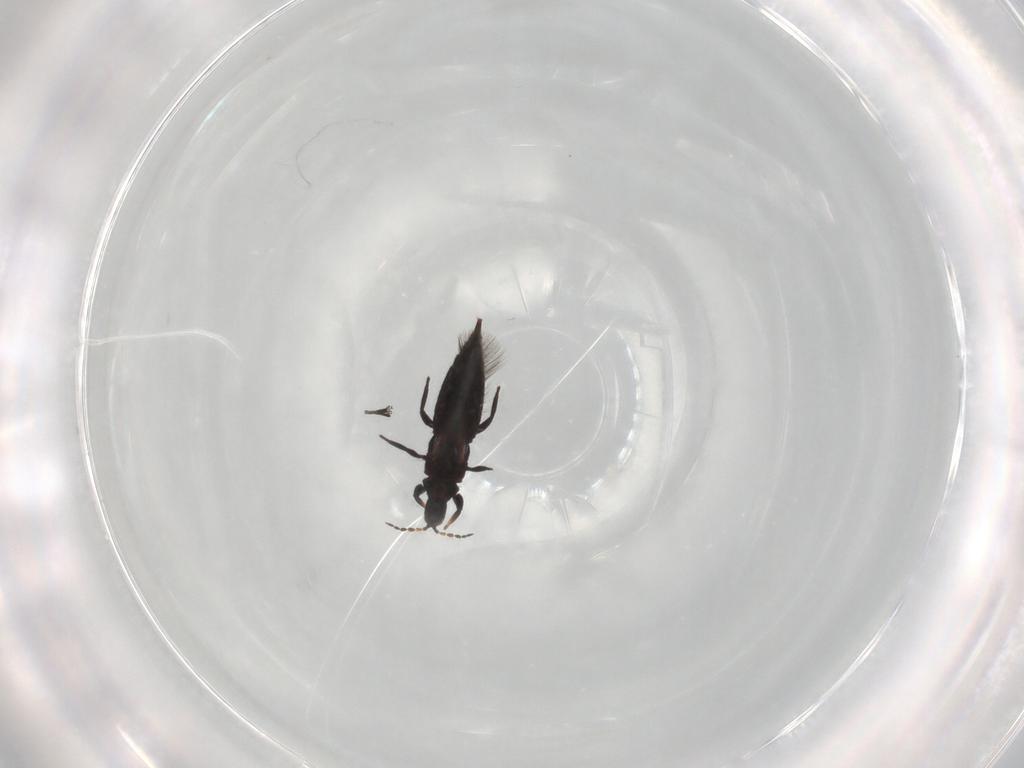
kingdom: Animalia
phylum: Arthropoda
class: Insecta
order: Thysanoptera
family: Phlaeothripidae
